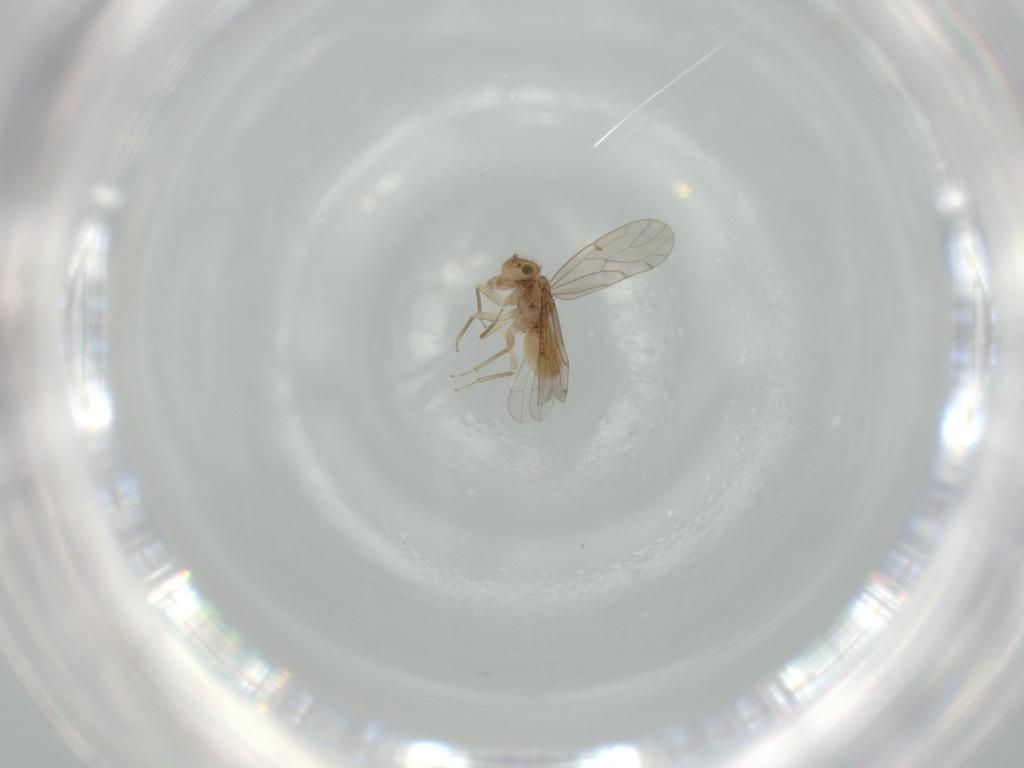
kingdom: Animalia
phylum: Arthropoda
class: Insecta
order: Psocodea
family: Ectopsocidae
